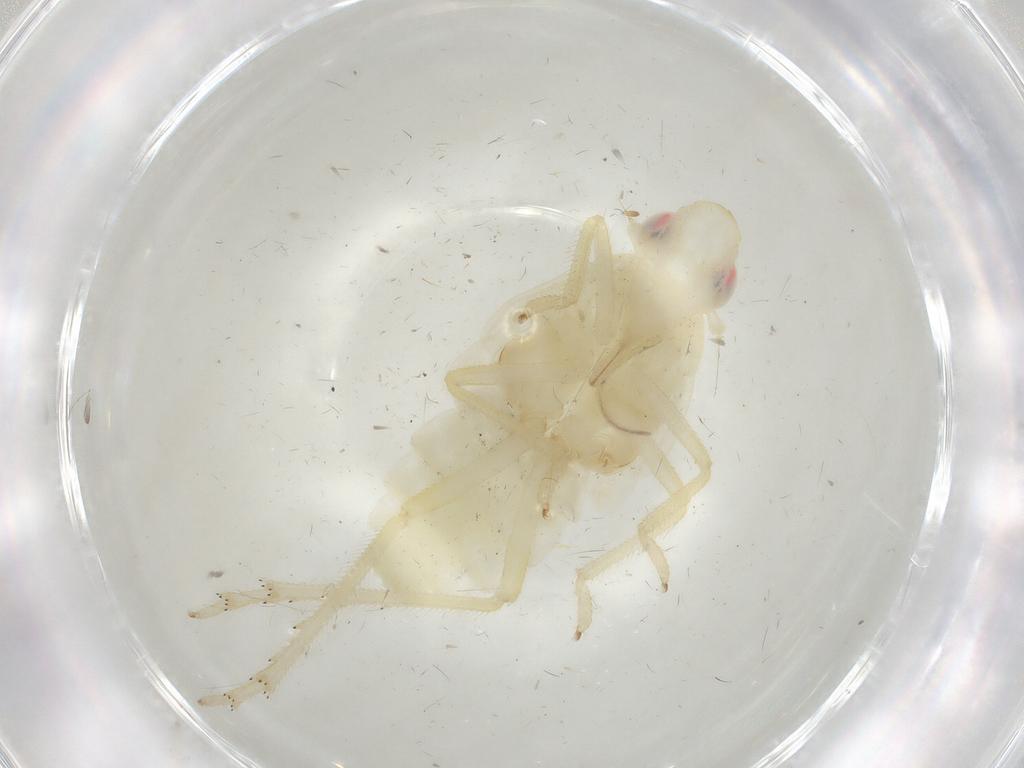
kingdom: Animalia
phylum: Arthropoda
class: Insecta
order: Hemiptera
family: Tropiduchidae
